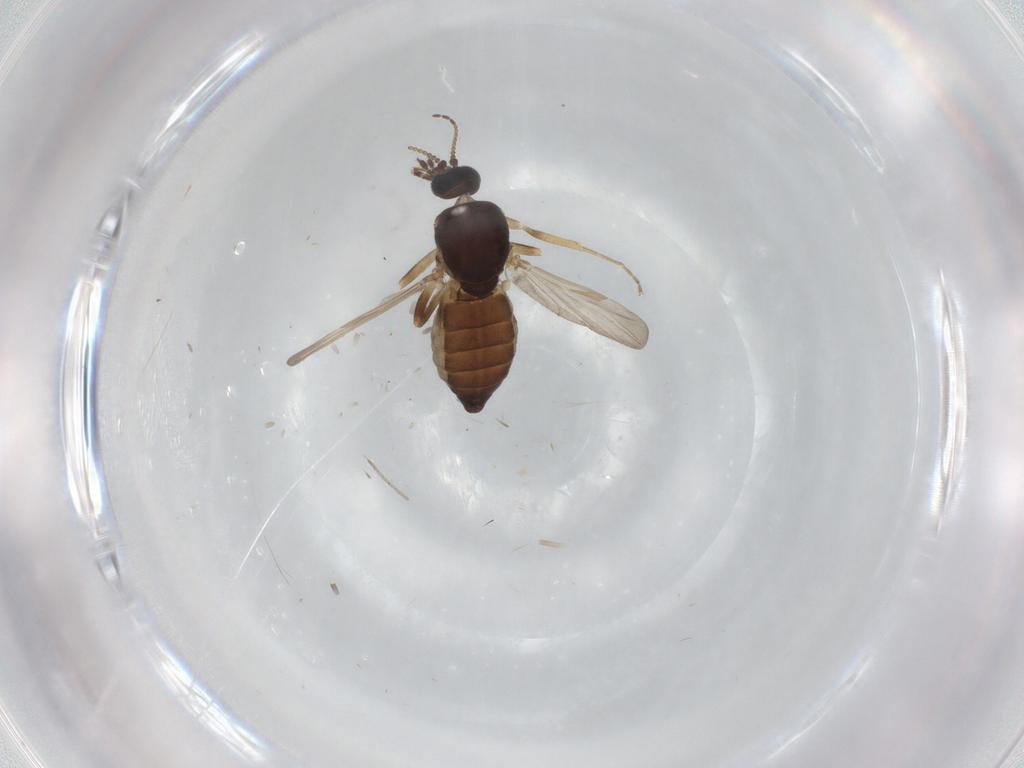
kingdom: Animalia
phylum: Arthropoda
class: Insecta
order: Diptera
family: Ceratopogonidae
